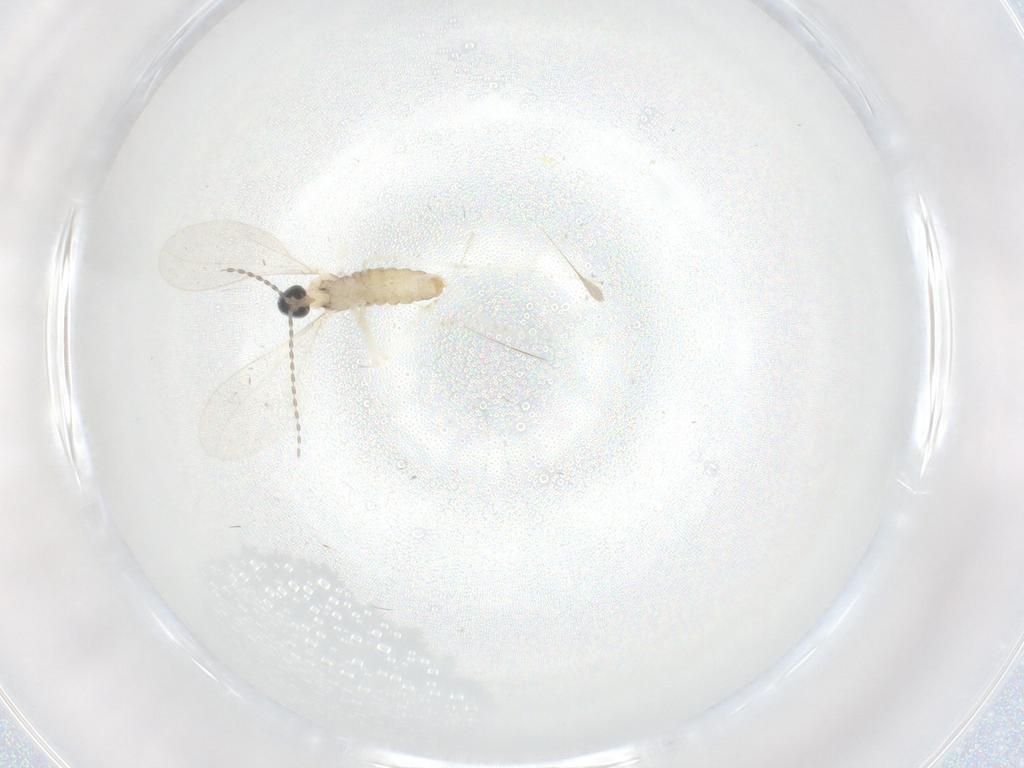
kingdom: Animalia
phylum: Arthropoda
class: Insecta
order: Diptera
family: Cecidomyiidae
